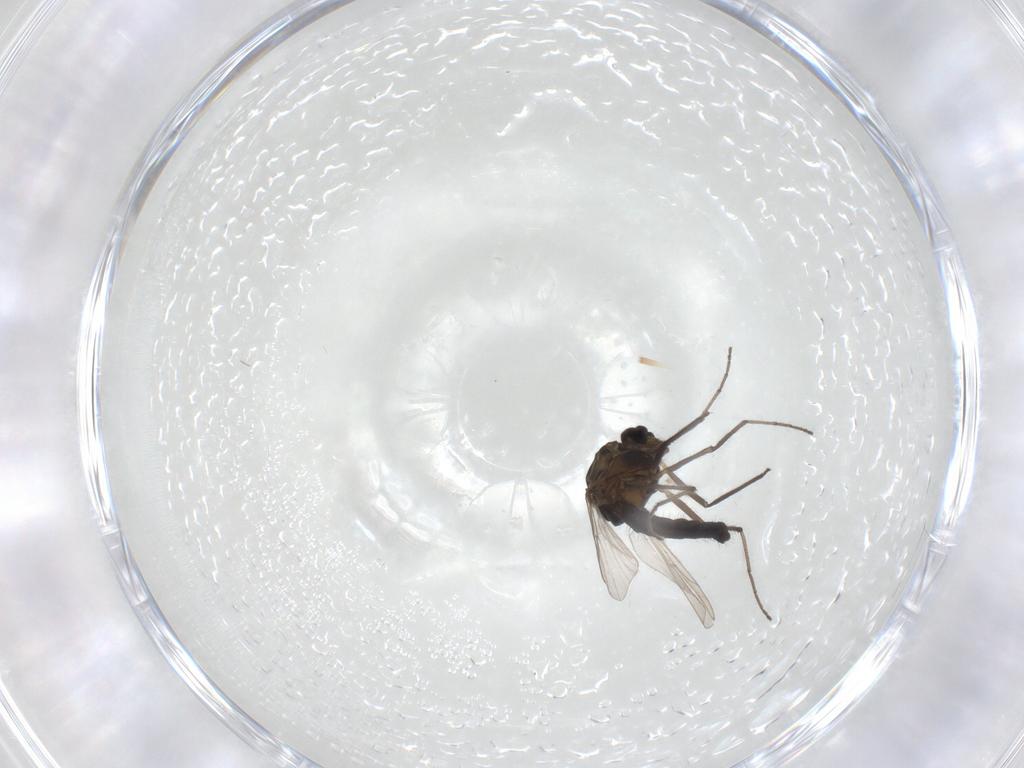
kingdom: Animalia
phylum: Arthropoda
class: Insecta
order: Diptera
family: Chironomidae
